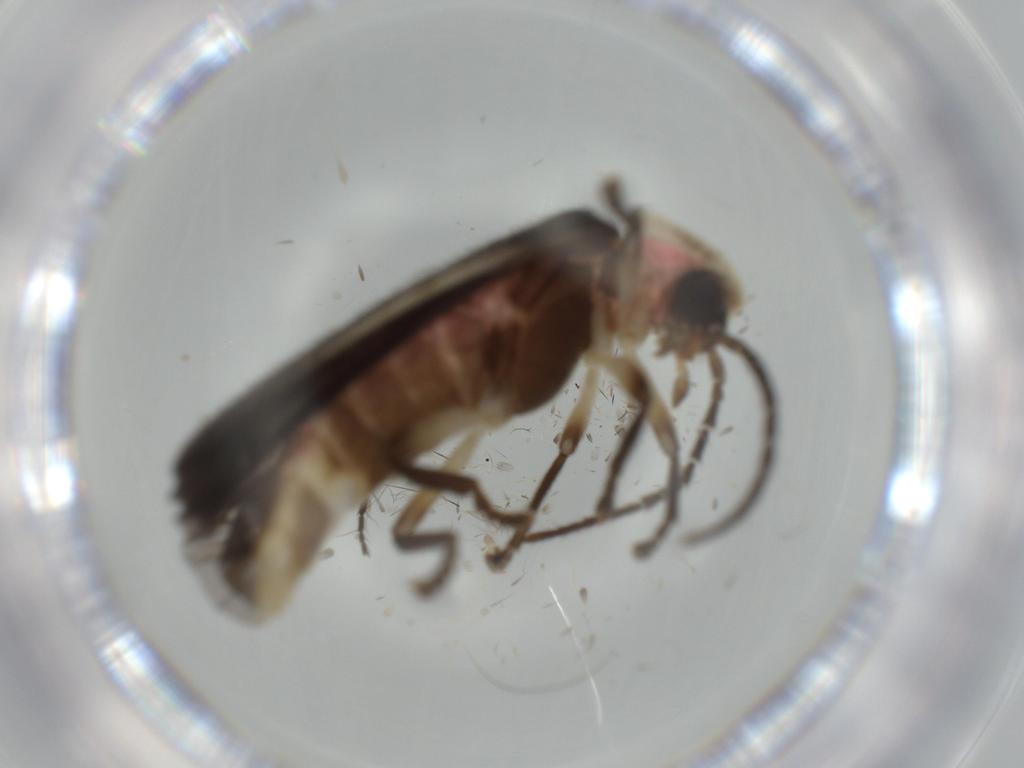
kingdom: Animalia
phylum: Arthropoda
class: Insecta
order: Coleoptera
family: Lampyridae
